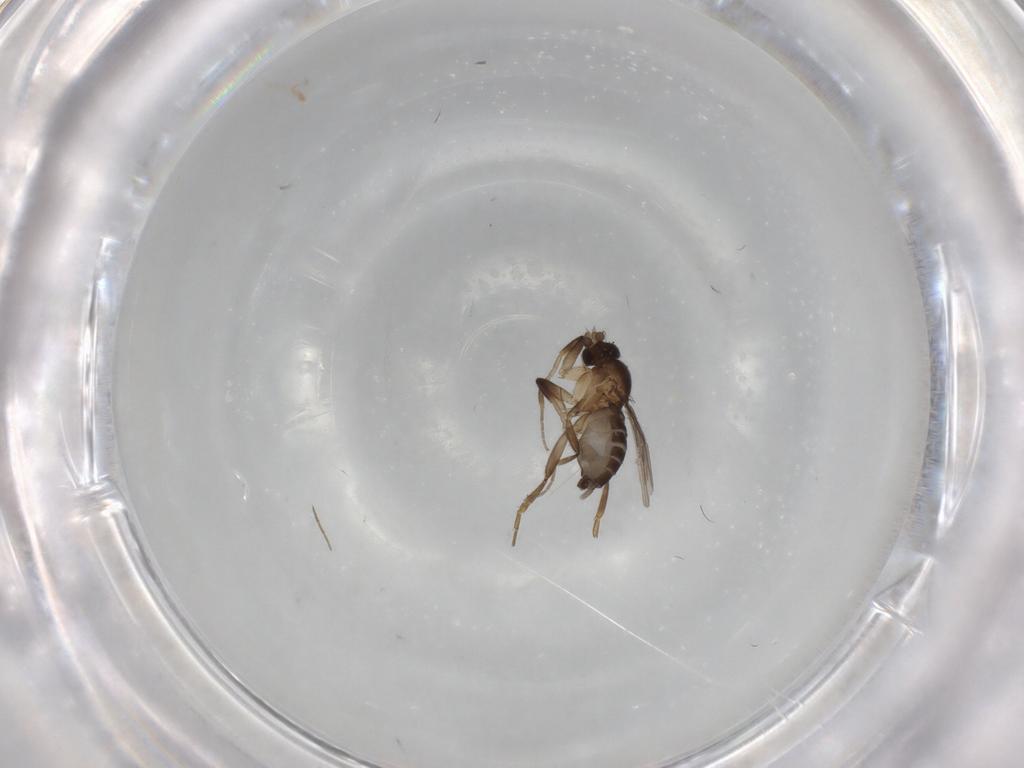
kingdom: Animalia
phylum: Arthropoda
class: Insecta
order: Diptera
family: Phoridae
